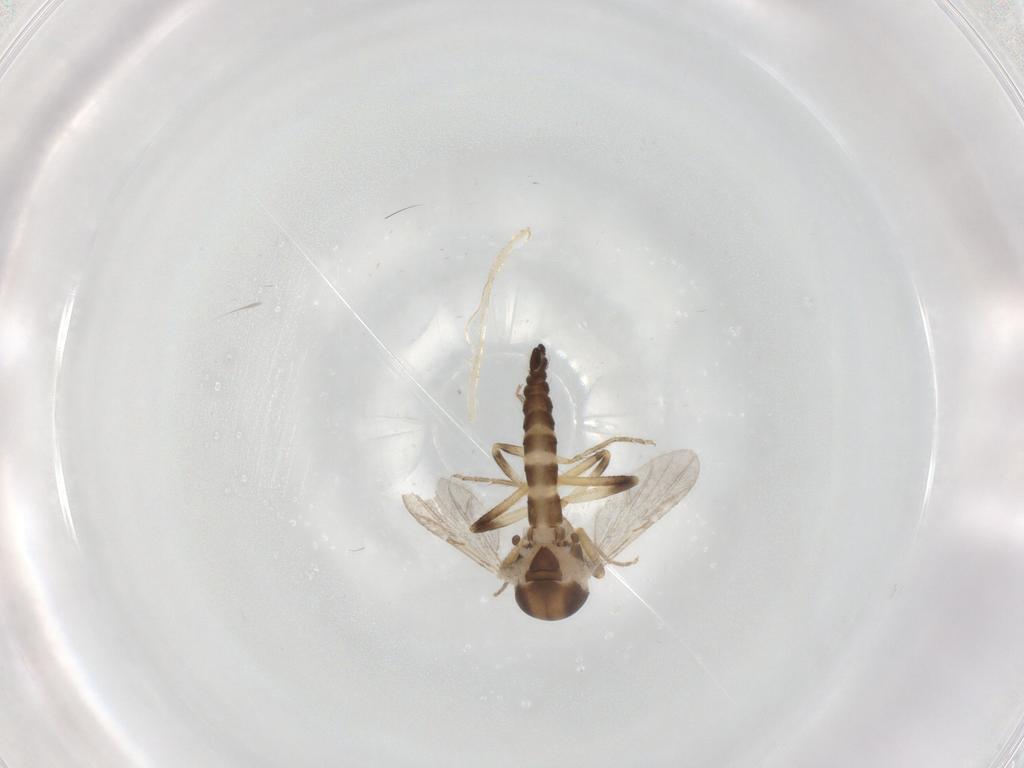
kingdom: Animalia
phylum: Arthropoda
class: Insecta
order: Diptera
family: Ceratopogonidae
